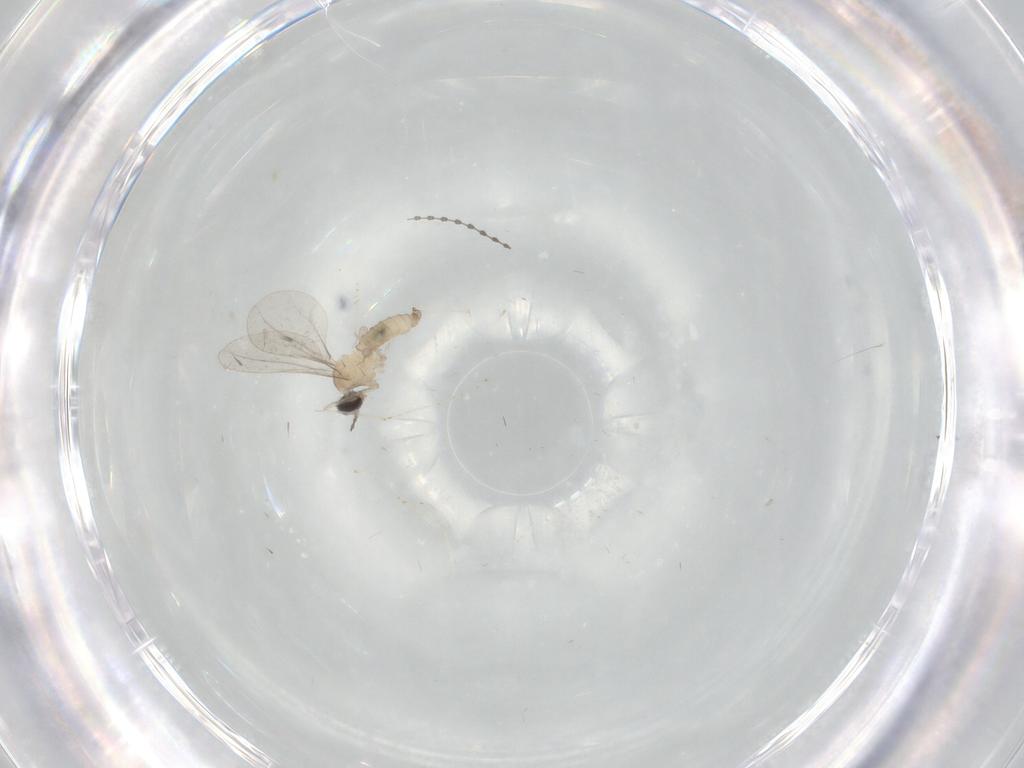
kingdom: Animalia
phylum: Arthropoda
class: Insecta
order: Diptera
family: Cecidomyiidae
